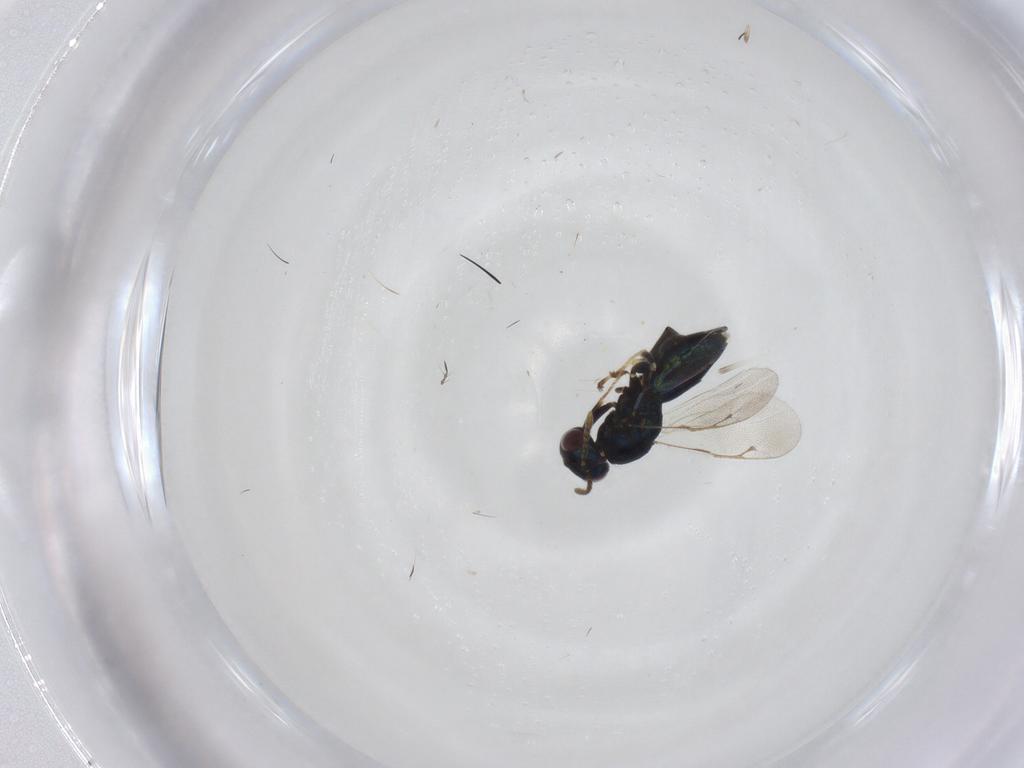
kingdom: Animalia
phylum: Arthropoda
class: Insecta
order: Hymenoptera
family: Pteromalidae
